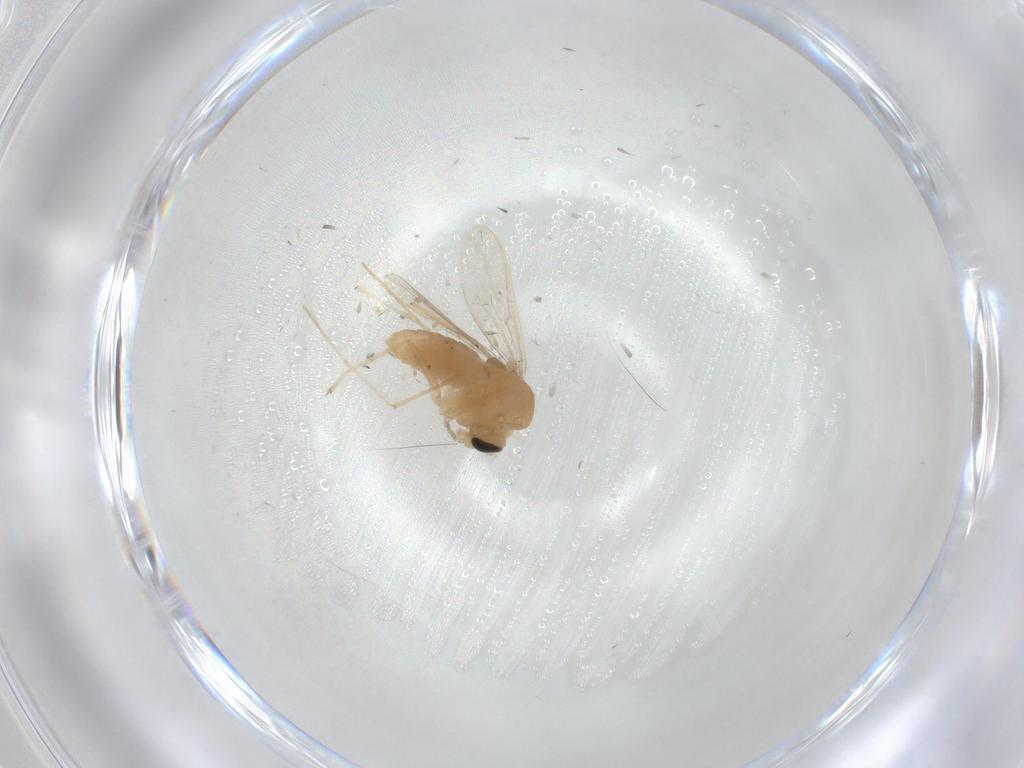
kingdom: Animalia
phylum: Arthropoda
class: Insecta
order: Diptera
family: Chironomidae
